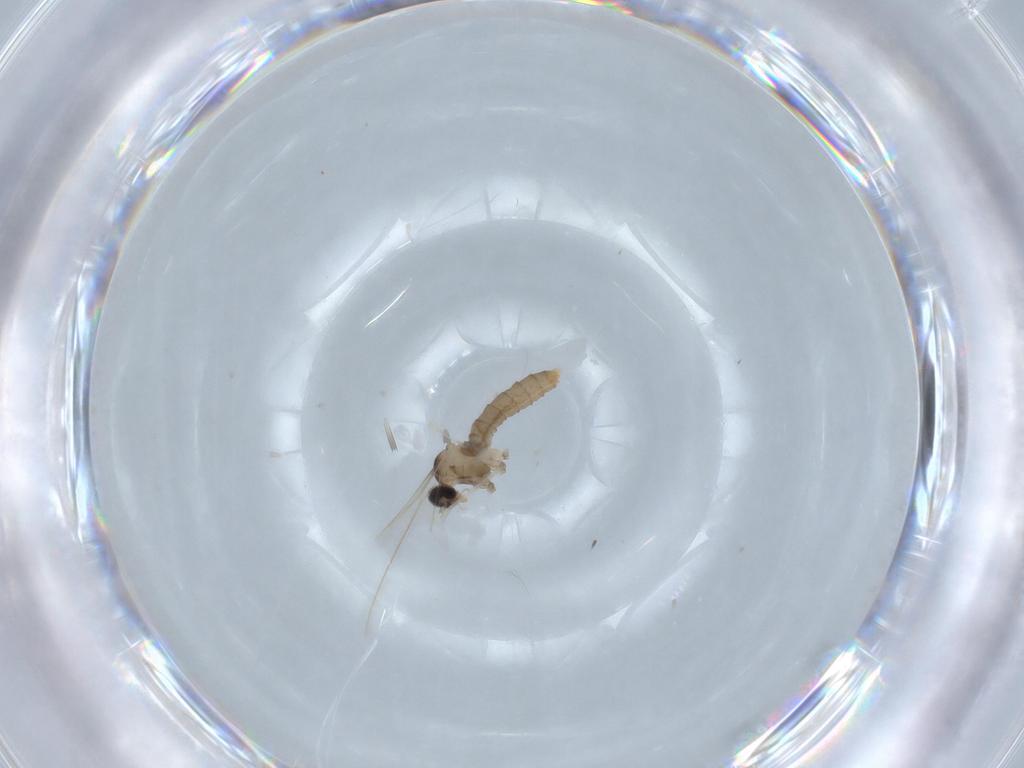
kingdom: Animalia
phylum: Arthropoda
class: Insecta
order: Diptera
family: Cecidomyiidae
